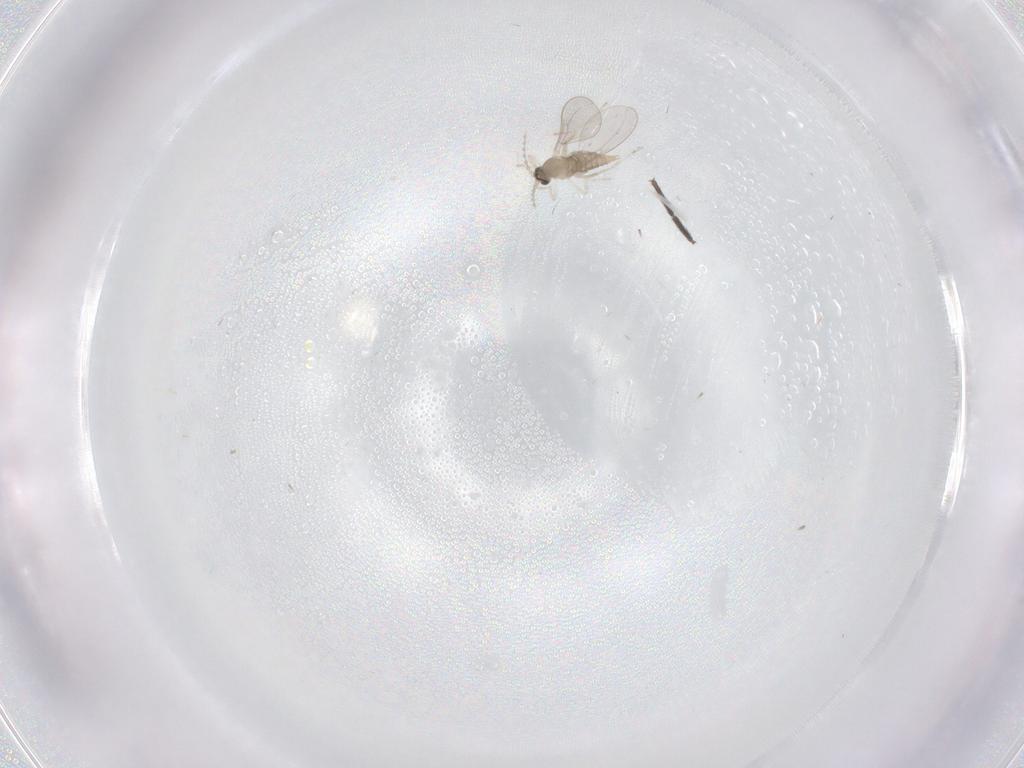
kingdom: Animalia
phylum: Arthropoda
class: Insecta
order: Diptera
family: Sciaridae
